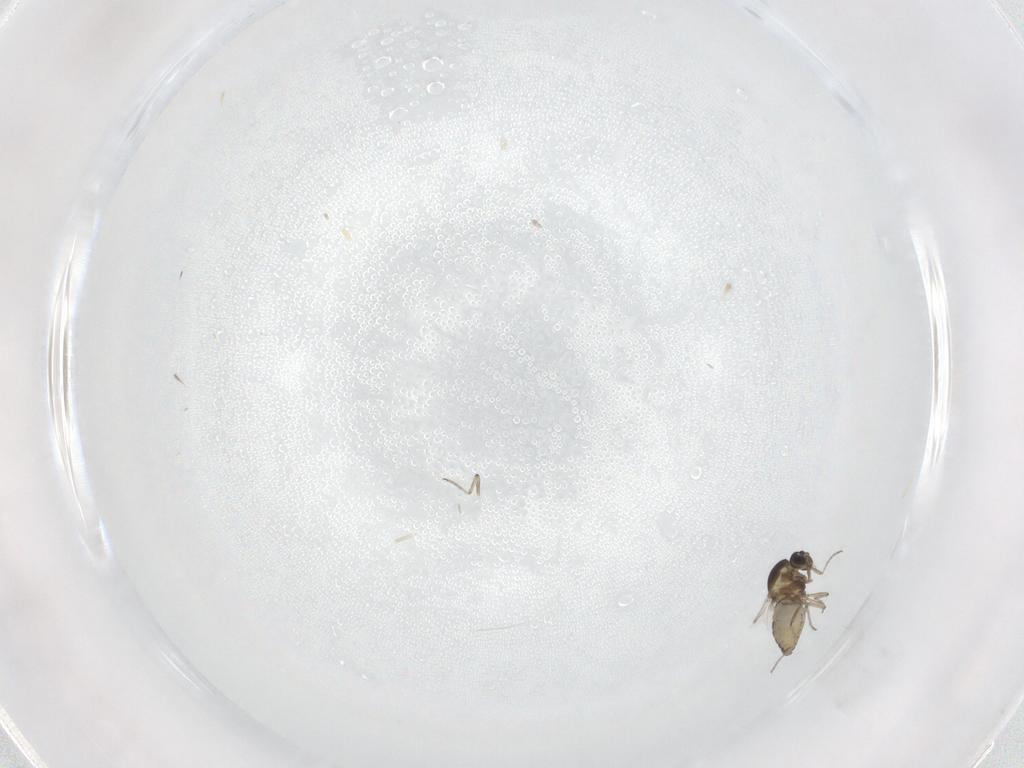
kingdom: Animalia
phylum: Arthropoda
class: Insecta
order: Diptera
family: Ceratopogonidae
